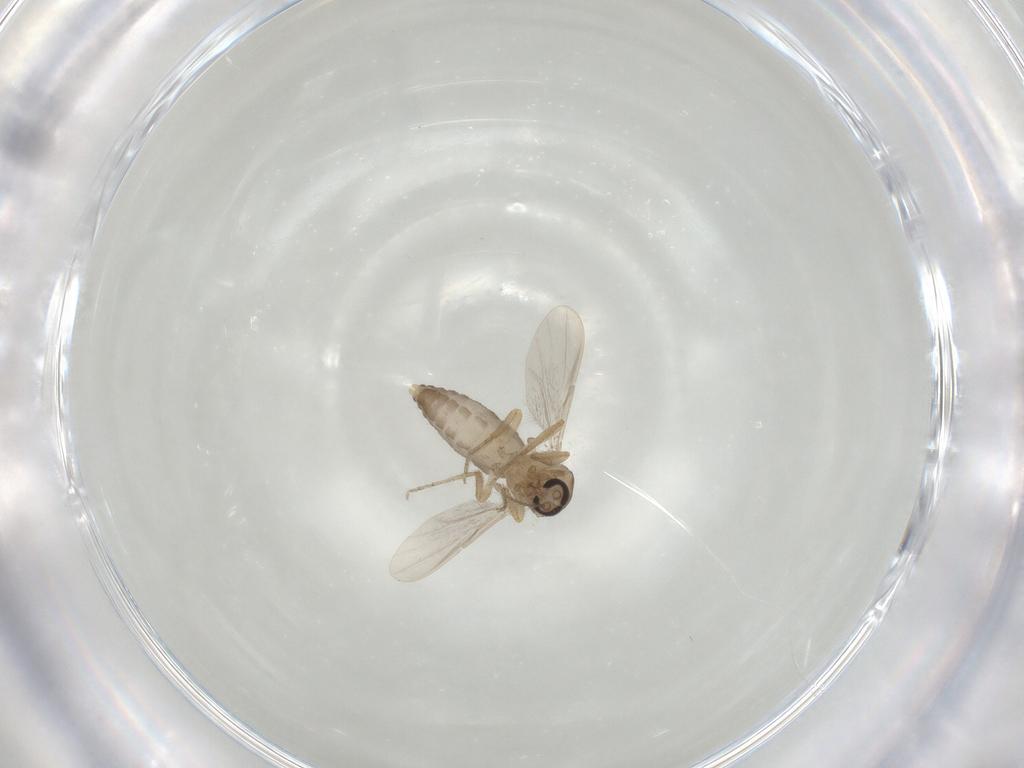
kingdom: Animalia
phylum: Arthropoda
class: Insecta
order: Diptera
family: Ceratopogonidae
